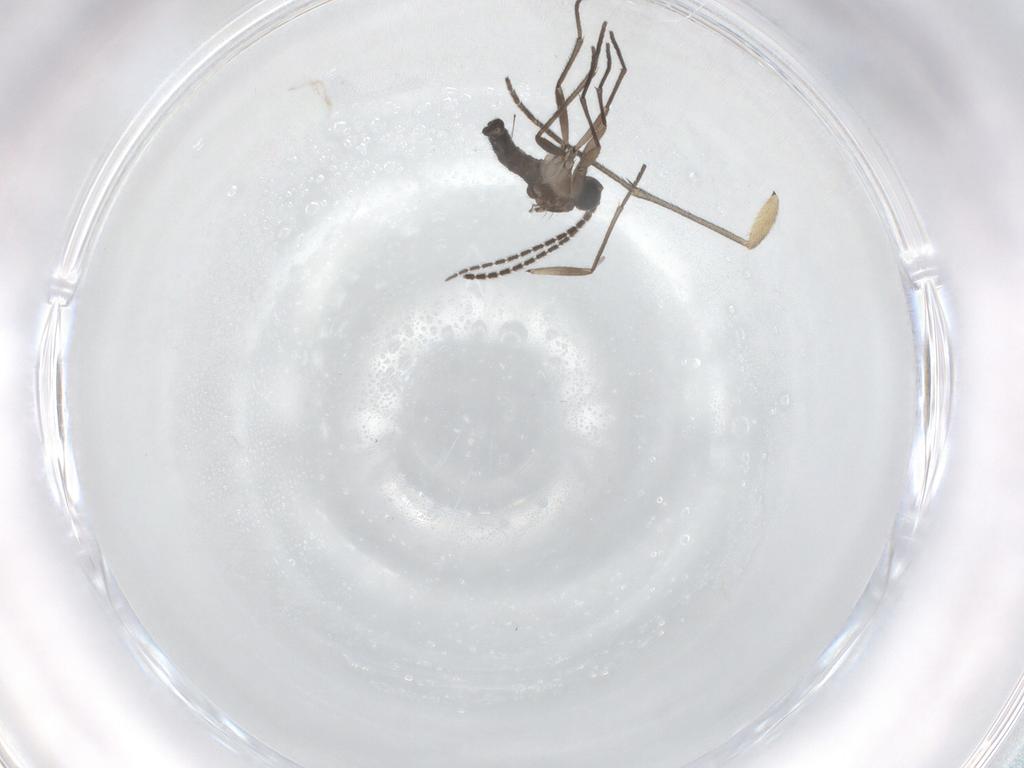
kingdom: Animalia
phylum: Arthropoda
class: Insecta
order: Diptera
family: Sciaridae
